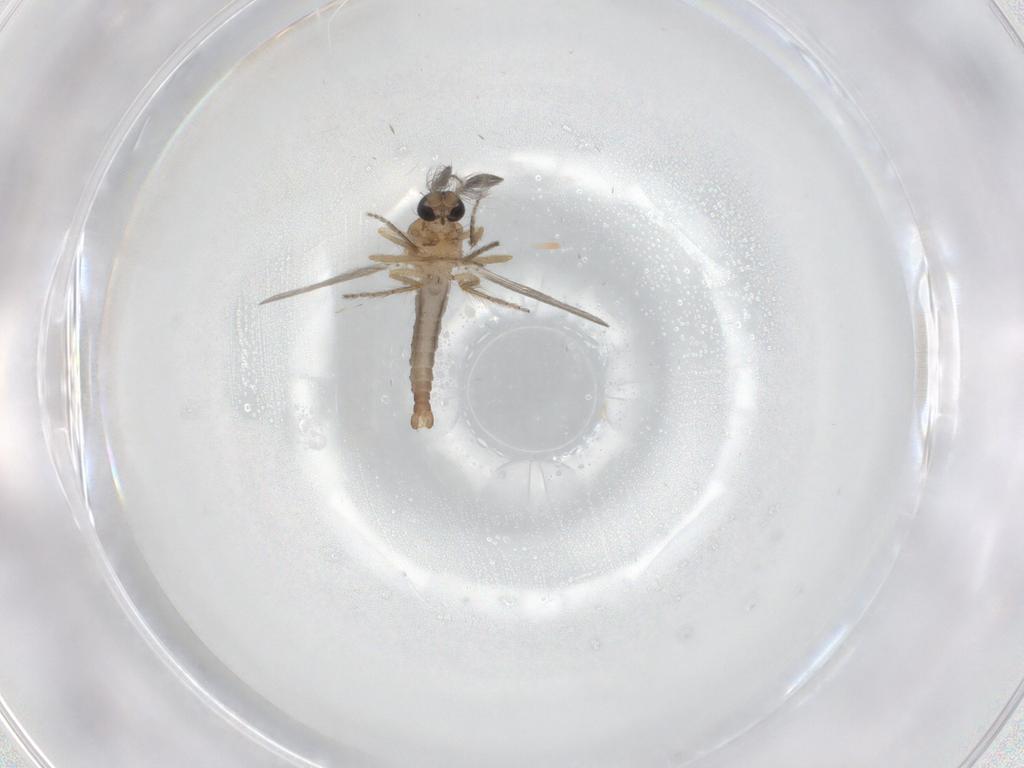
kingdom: Animalia
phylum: Arthropoda
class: Insecta
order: Diptera
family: Ceratopogonidae
